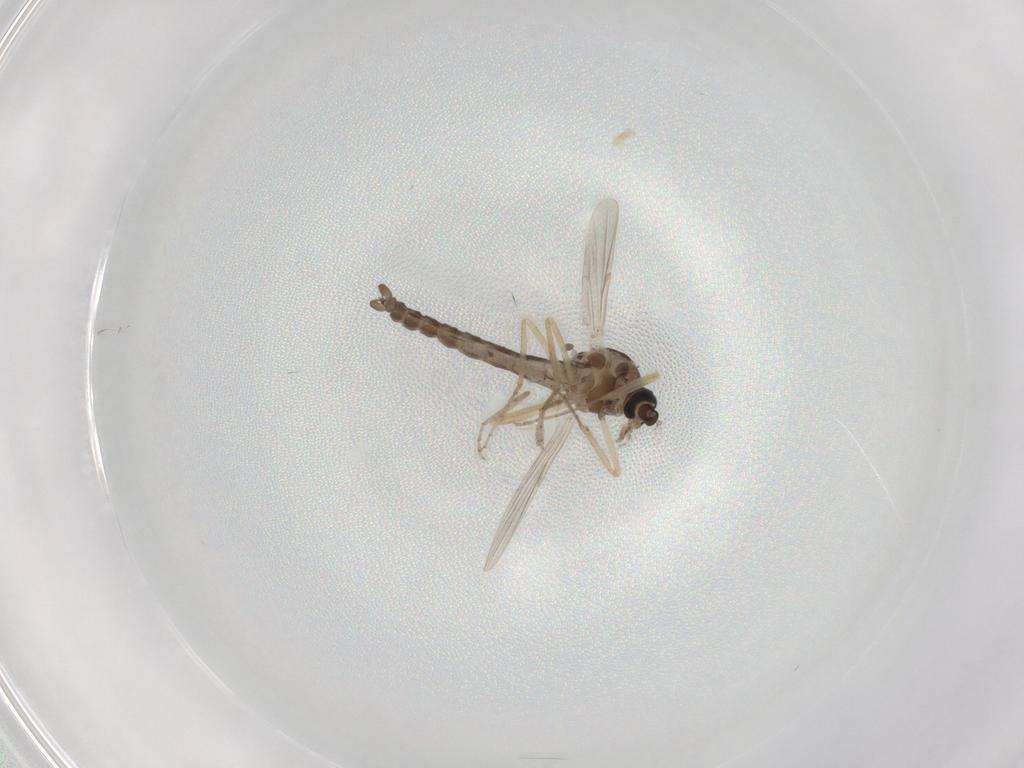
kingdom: Animalia
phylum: Arthropoda
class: Insecta
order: Diptera
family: Ceratopogonidae
